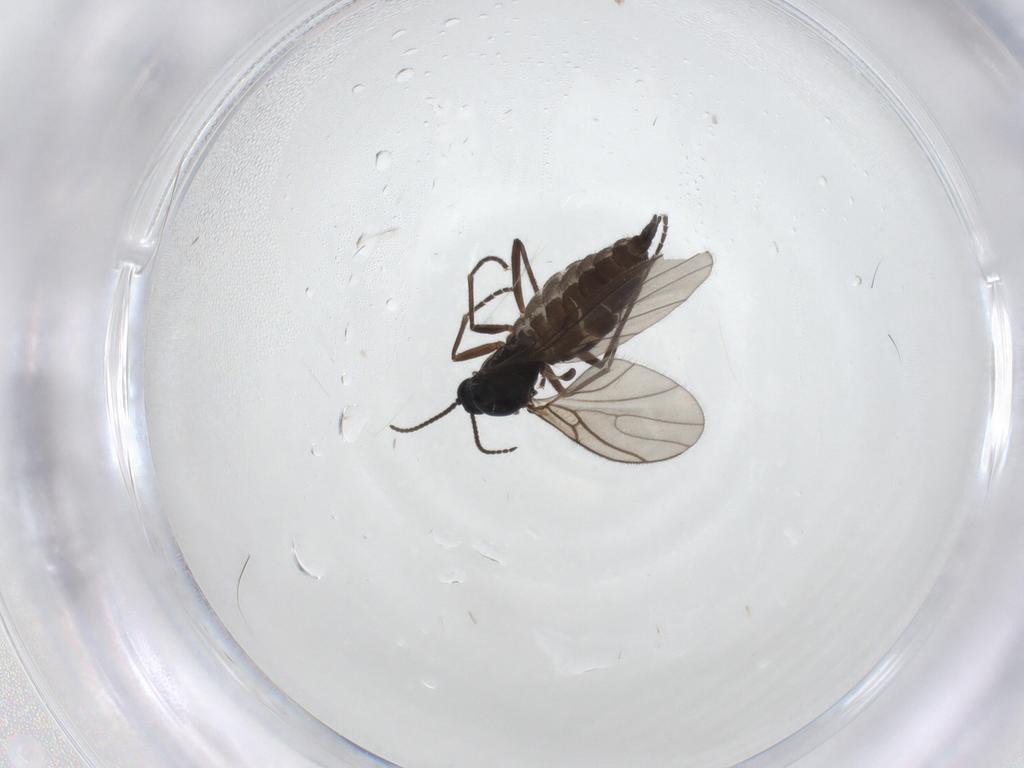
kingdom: Animalia
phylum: Arthropoda
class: Insecta
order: Diptera
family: Sciaridae
